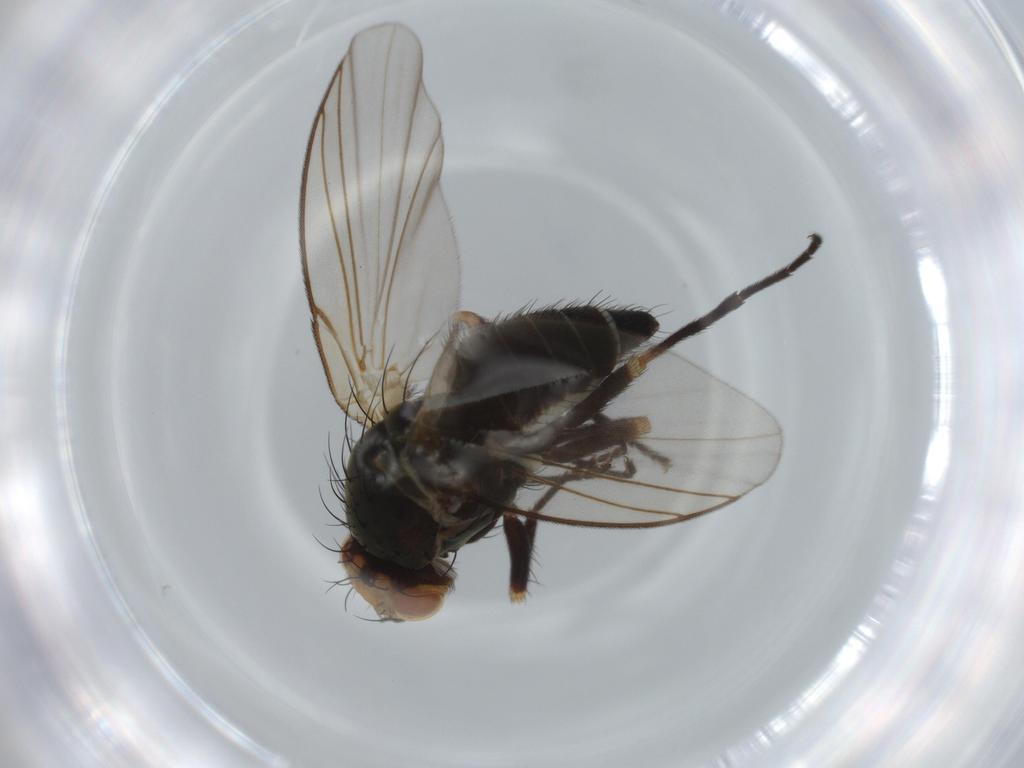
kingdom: Animalia
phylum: Arthropoda
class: Insecta
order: Diptera
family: Agromyzidae
